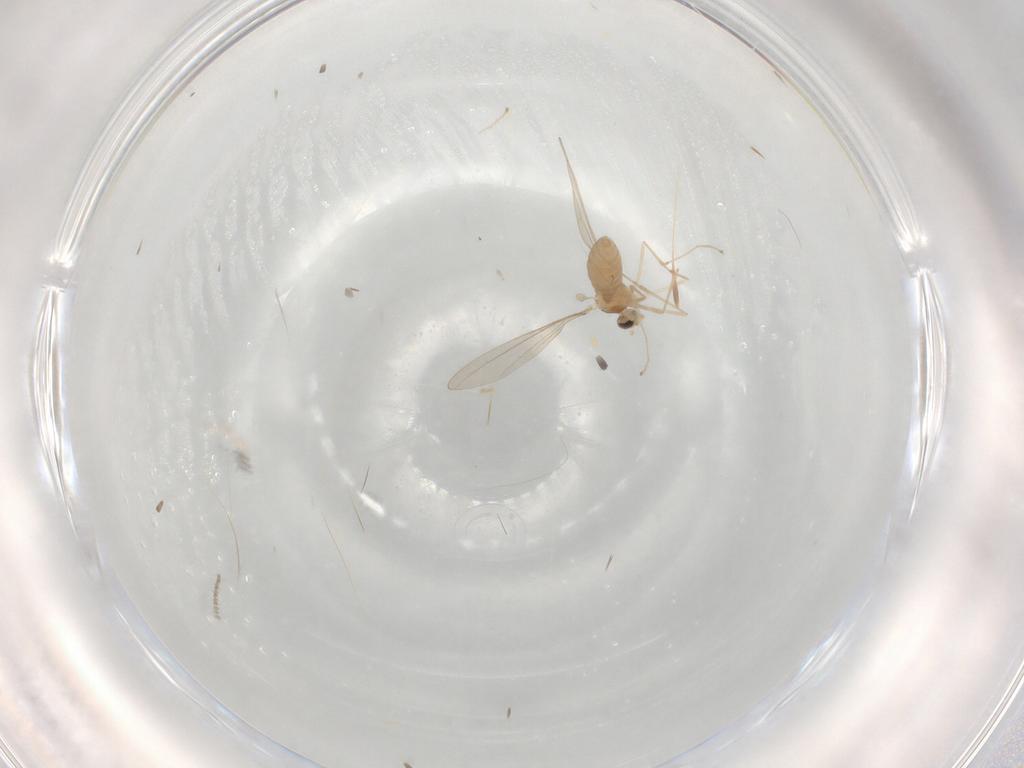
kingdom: Animalia
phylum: Arthropoda
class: Insecta
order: Diptera
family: Cecidomyiidae
